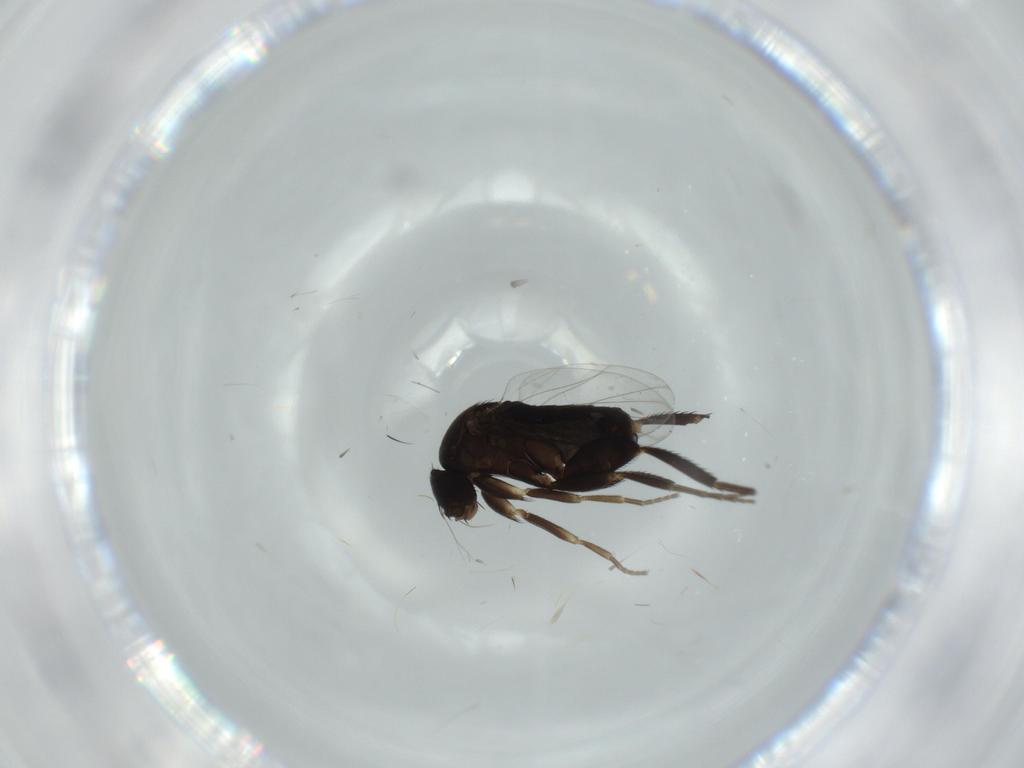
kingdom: Animalia
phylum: Arthropoda
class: Insecta
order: Diptera
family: Phoridae
